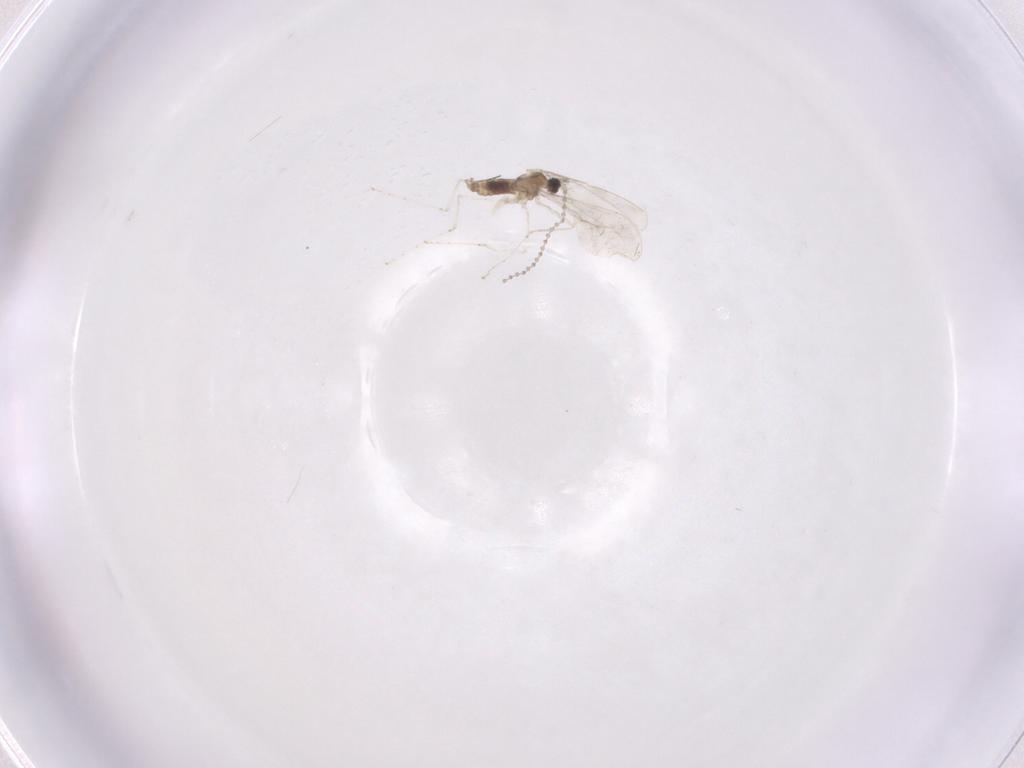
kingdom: Animalia
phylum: Arthropoda
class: Insecta
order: Diptera
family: Cecidomyiidae
